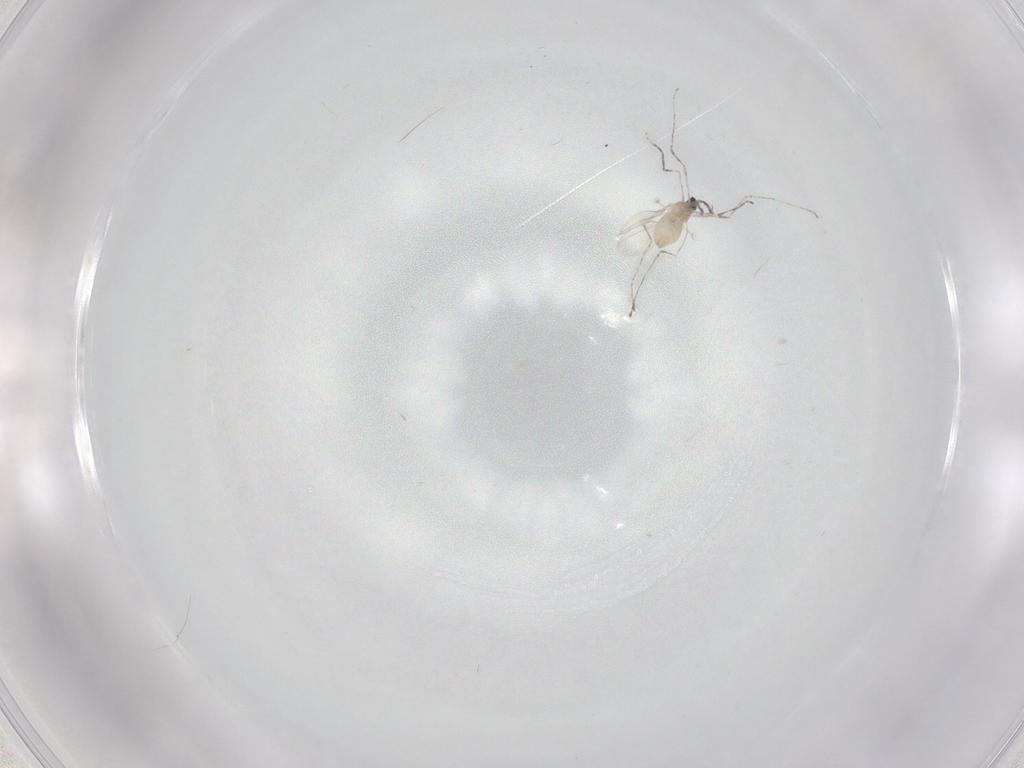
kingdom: Animalia
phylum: Arthropoda
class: Insecta
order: Diptera
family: Cecidomyiidae
